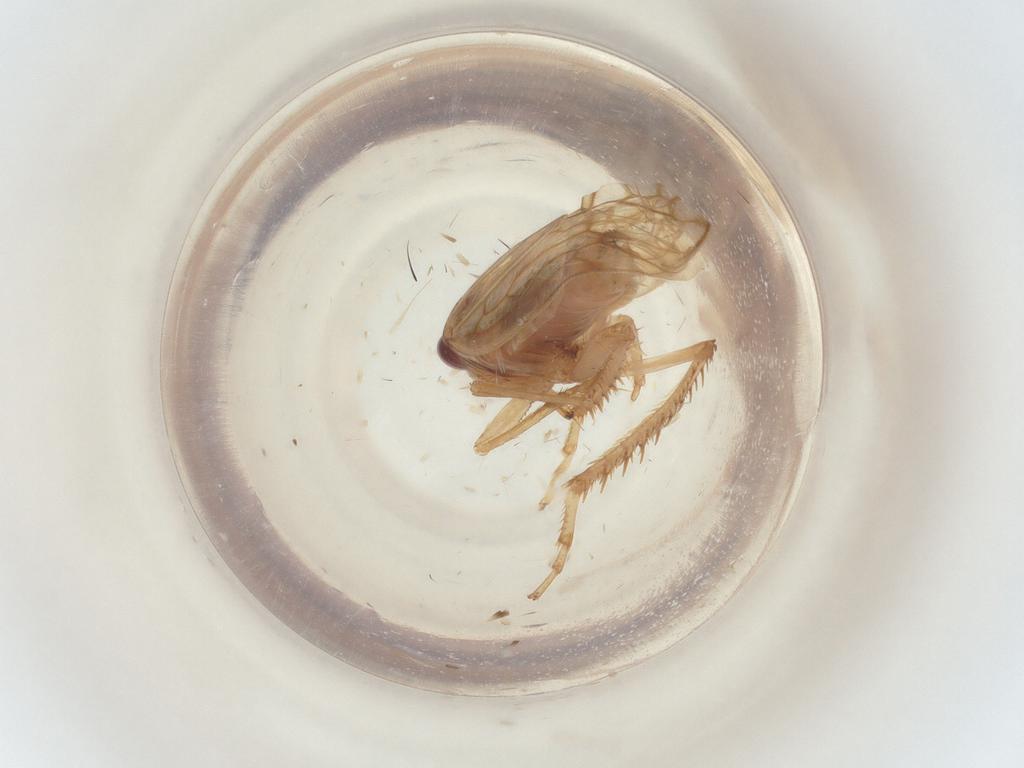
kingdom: Animalia
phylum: Arthropoda
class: Insecta
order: Hemiptera
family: Cicadellidae
